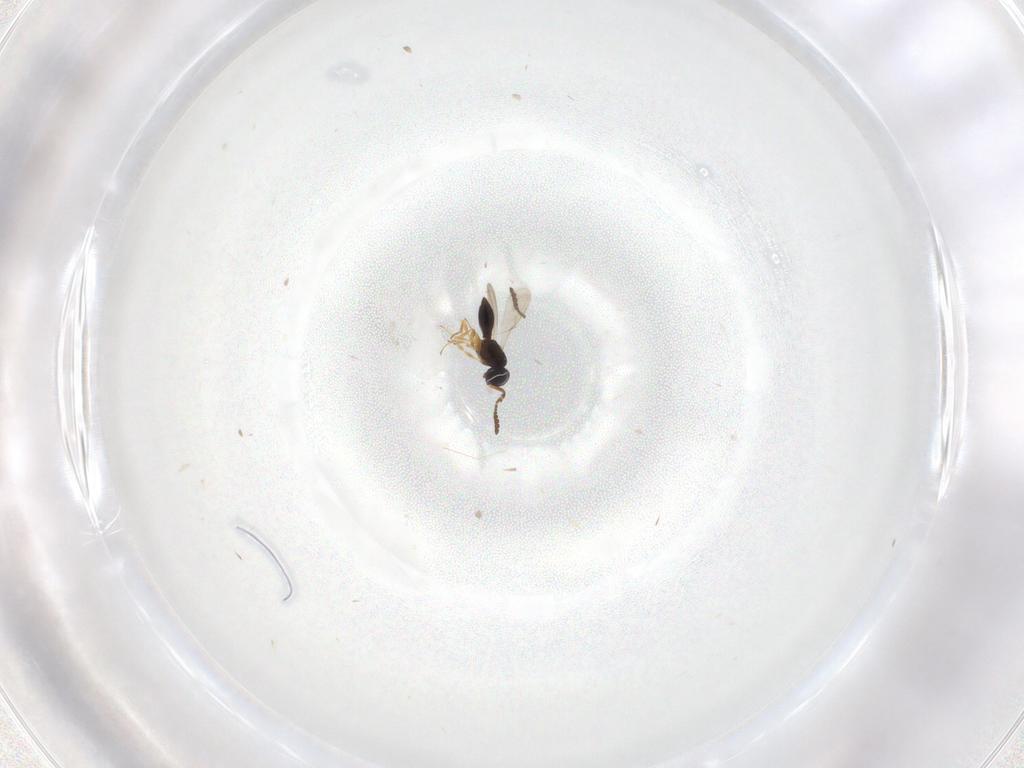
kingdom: Animalia
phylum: Arthropoda
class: Insecta
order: Hymenoptera
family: Scelionidae
